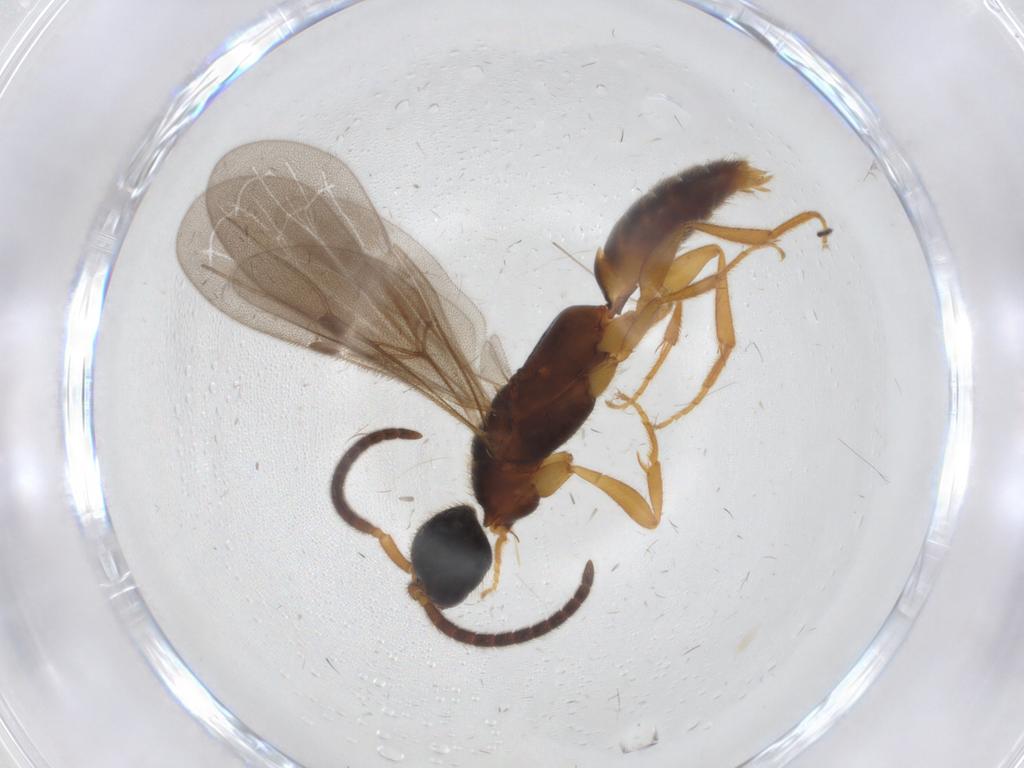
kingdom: Animalia
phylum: Arthropoda
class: Insecta
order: Hymenoptera
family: Bethylidae
